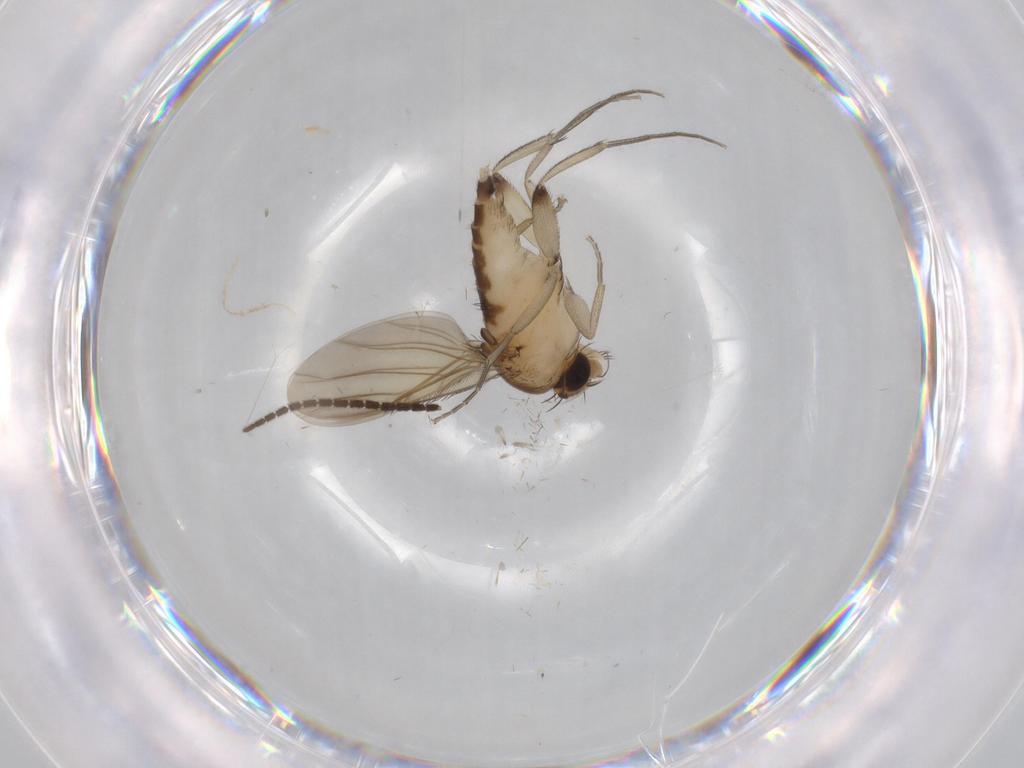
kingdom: Animalia
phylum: Arthropoda
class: Insecta
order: Diptera
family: Phoridae
